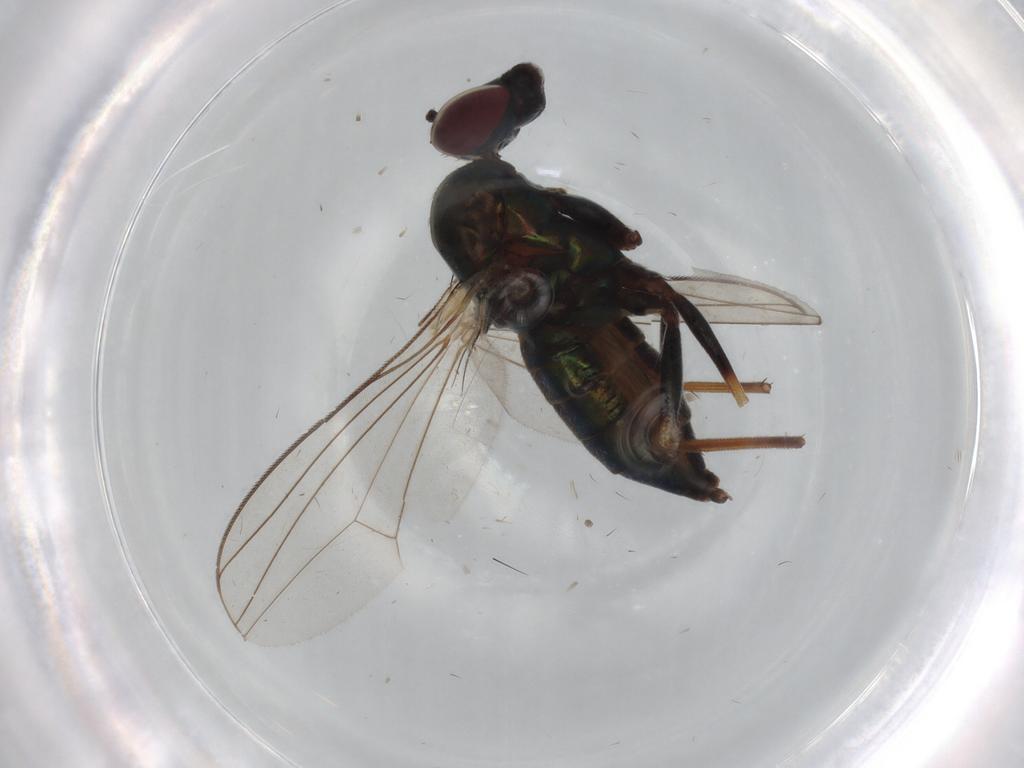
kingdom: Animalia
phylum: Arthropoda
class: Insecta
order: Diptera
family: Dolichopodidae
